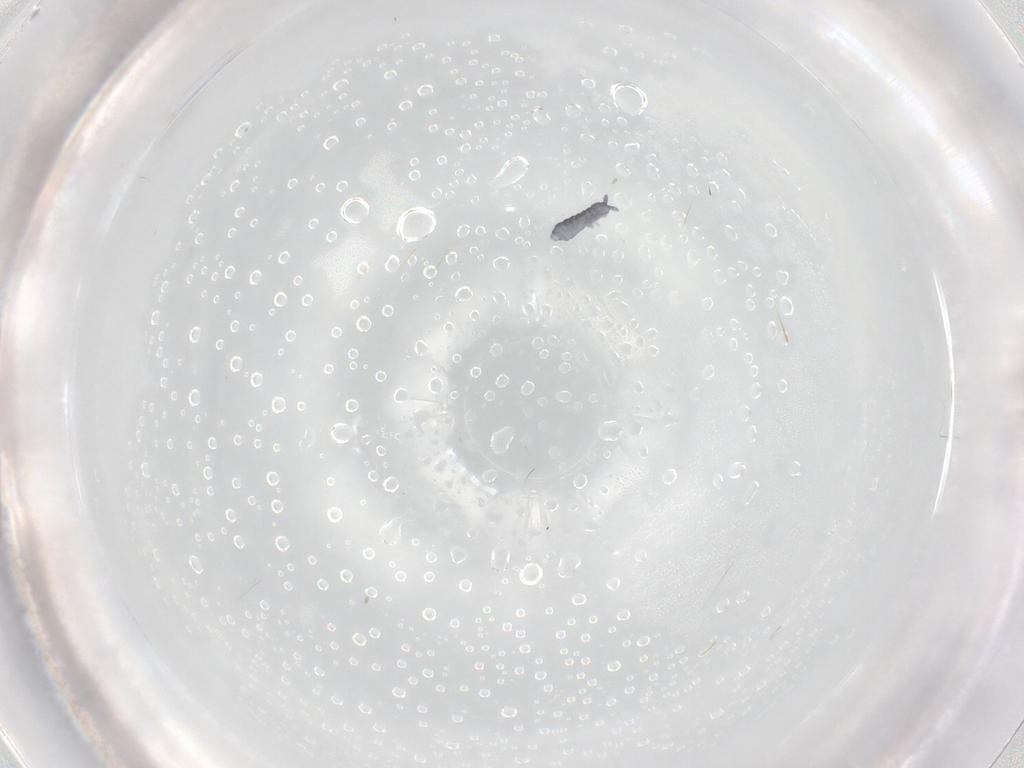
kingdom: Animalia
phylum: Arthropoda
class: Collembola
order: Poduromorpha
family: Hypogastruridae
